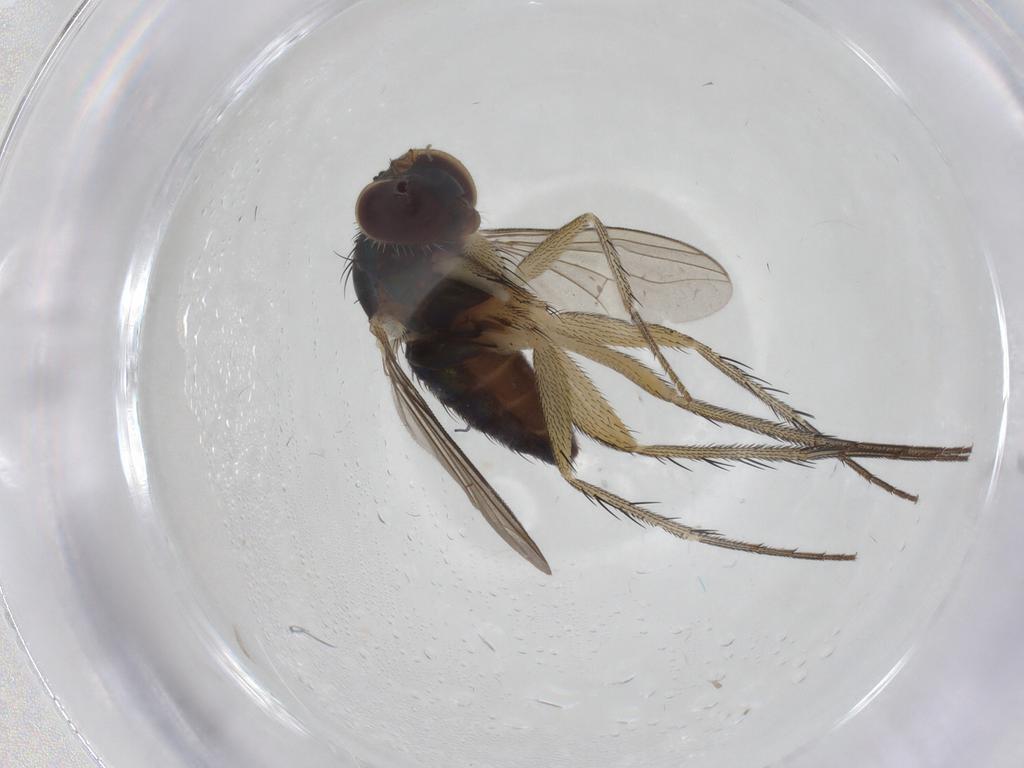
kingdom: Animalia
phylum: Arthropoda
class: Insecta
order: Diptera
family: Dolichopodidae
